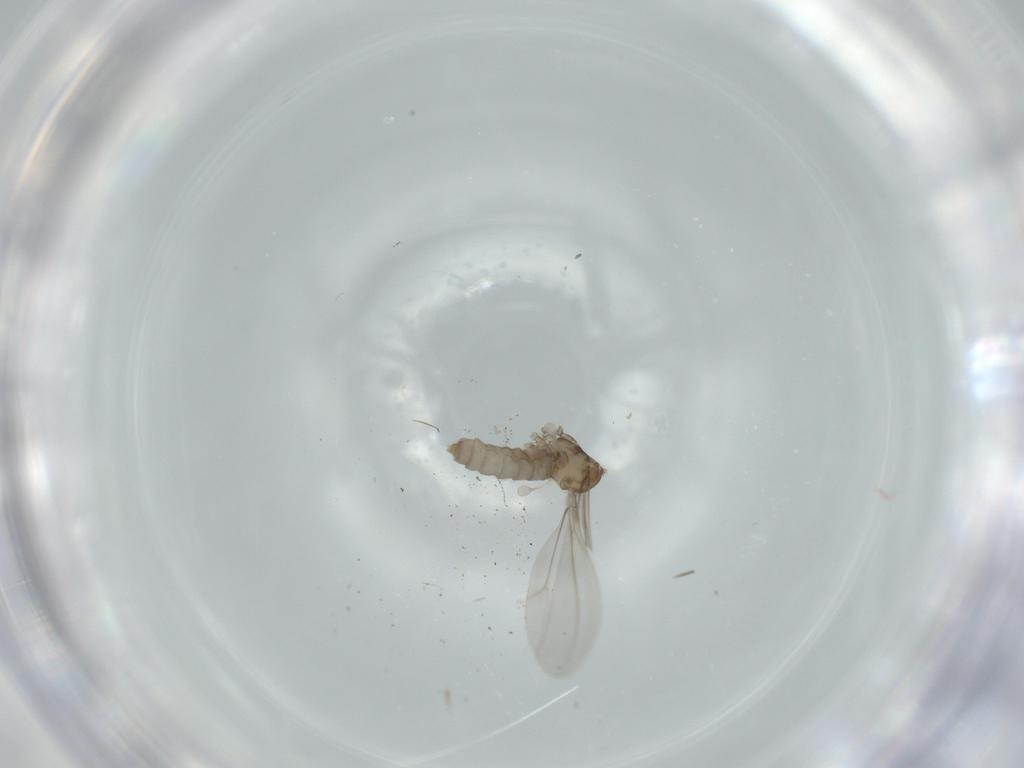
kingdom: Animalia
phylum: Arthropoda
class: Insecta
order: Diptera
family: Cecidomyiidae
